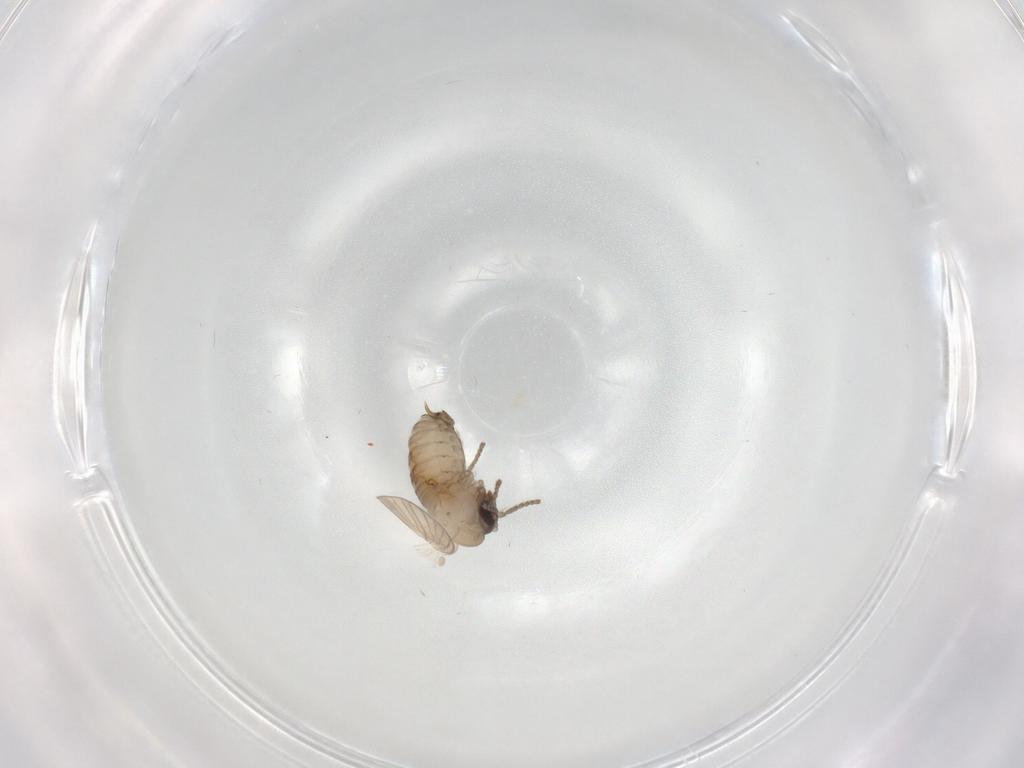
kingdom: Animalia
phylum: Arthropoda
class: Insecta
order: Diptera
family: Psychodidae
